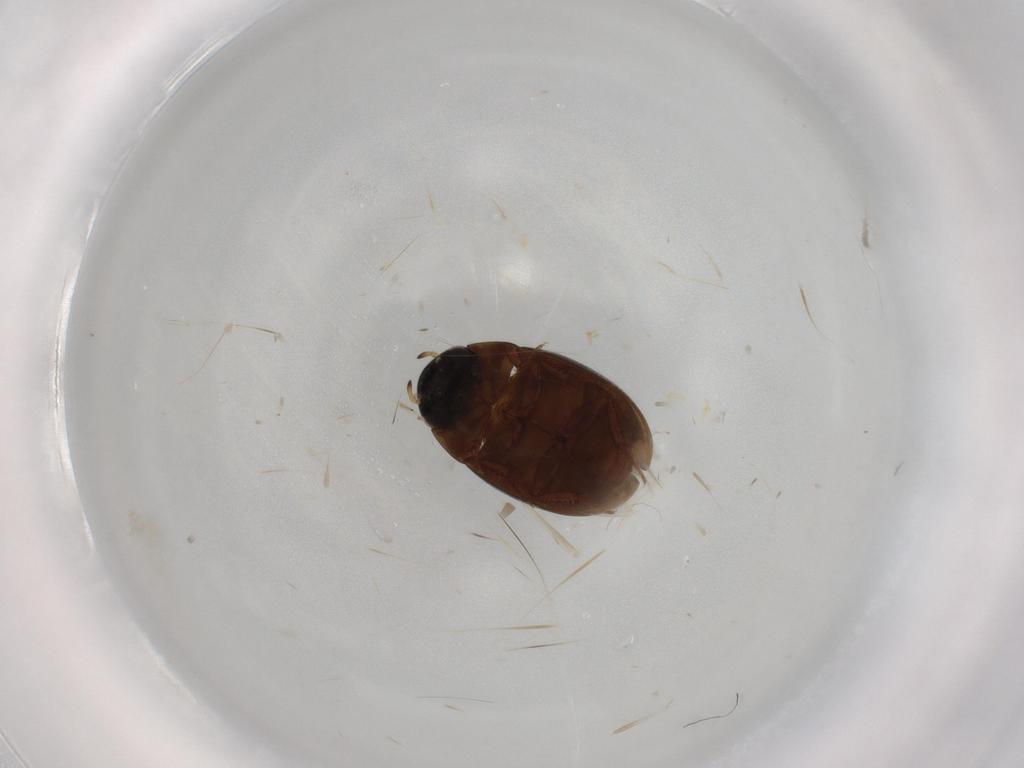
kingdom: Animalia
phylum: Arthropoda
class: Insecta
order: Coleoptera
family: Hydrophilidae
